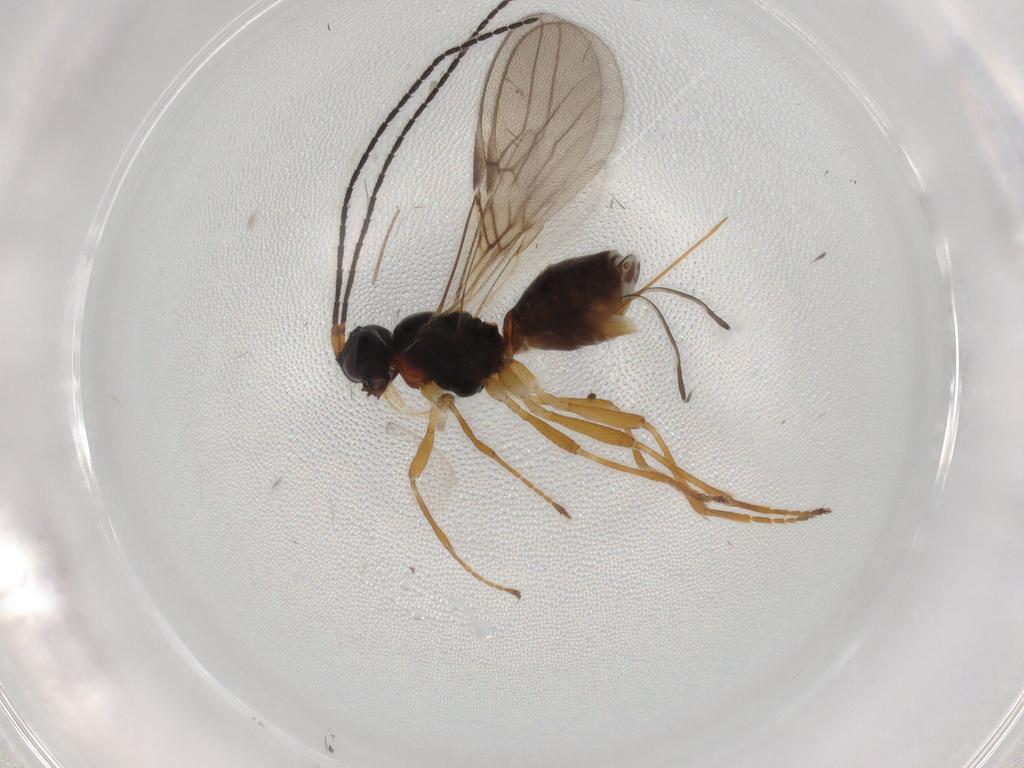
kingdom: Animalia
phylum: Arthropoda
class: Insecta
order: Hymenoptera
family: Braconidae
